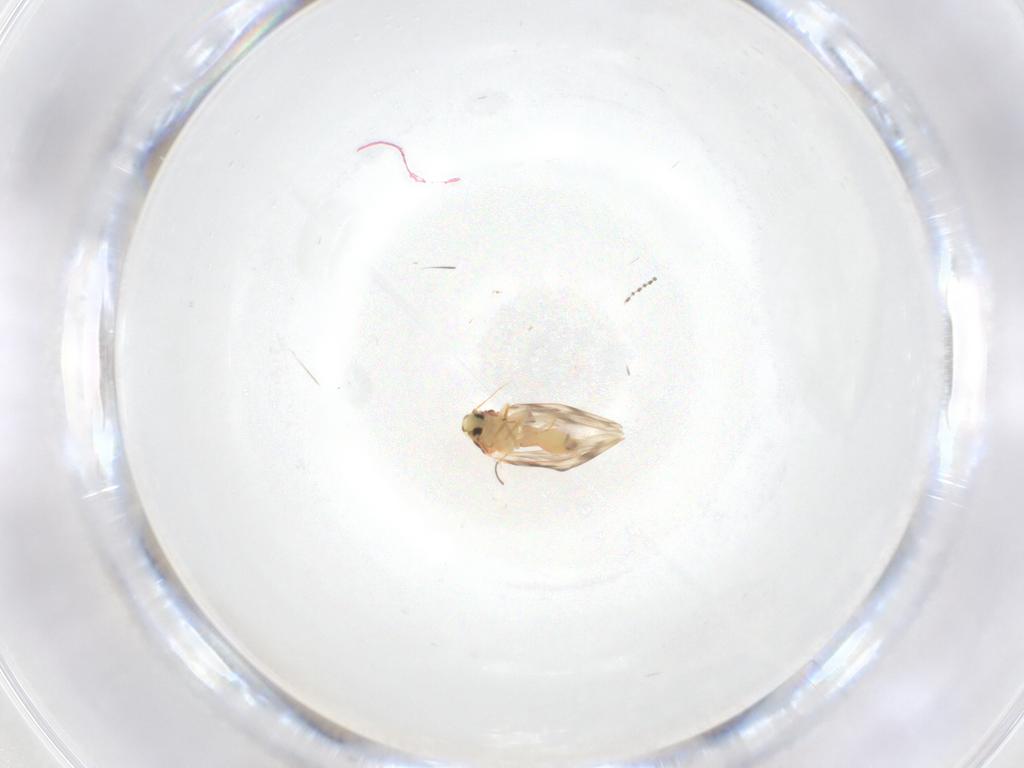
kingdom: Animalia
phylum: Arthropoda
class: Insecta
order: Hemiptera
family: Aleyrodidae
